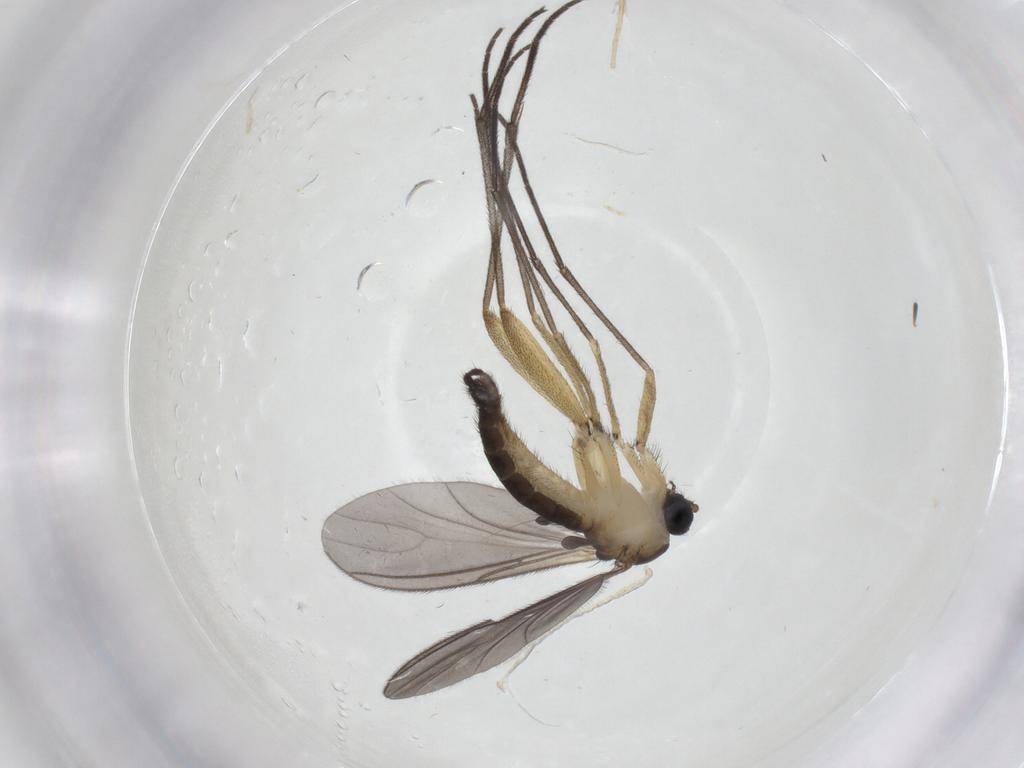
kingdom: Animalia
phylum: Arthropoda
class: Insecta
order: Diptera
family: Sciaridae
